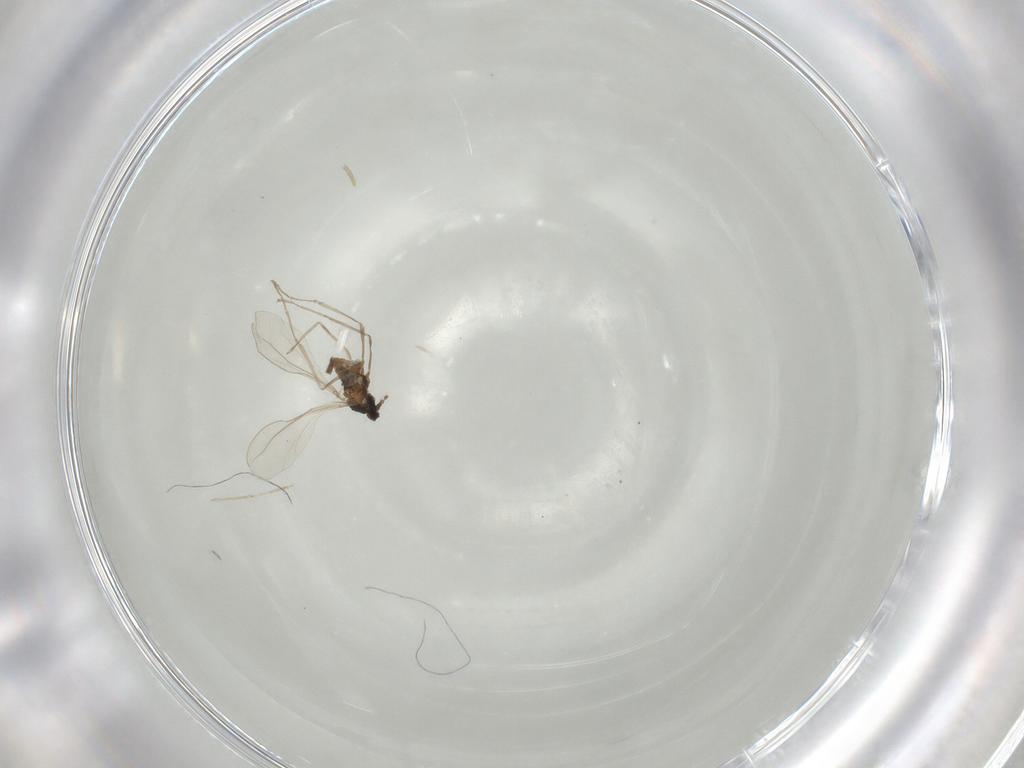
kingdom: Animalia
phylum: Arthropoda
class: Insecta
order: Diptera
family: Cecidomyiidae
